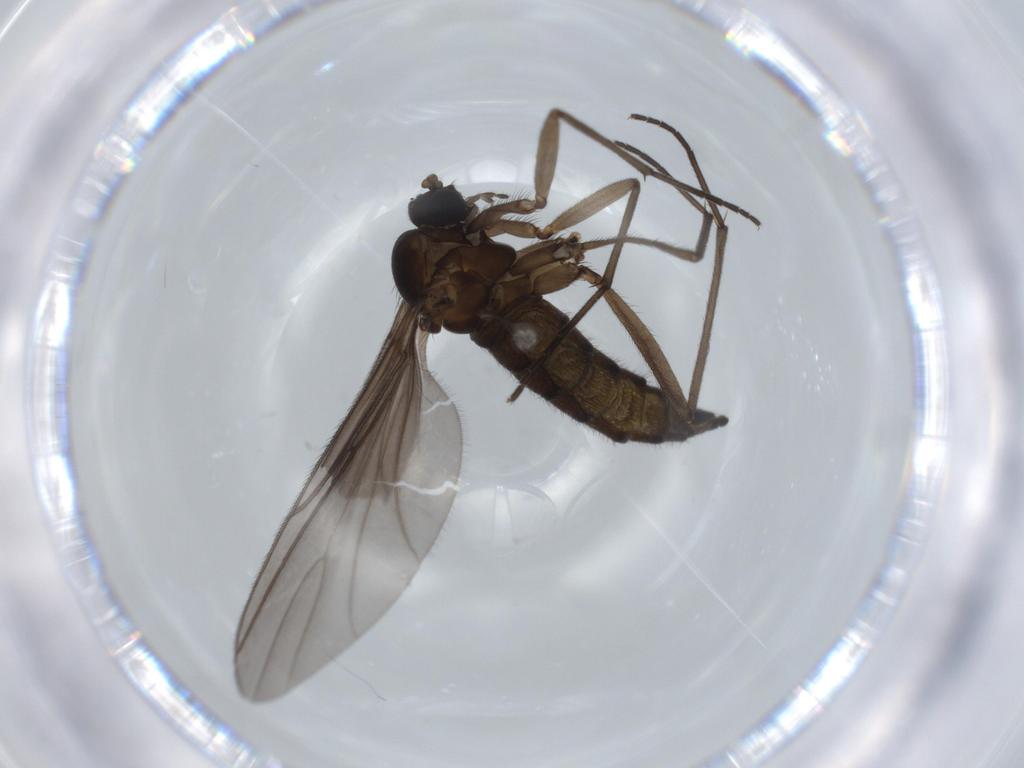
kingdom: Animalia
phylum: Arthropoda
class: Insecta
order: Diptera
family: Sciaridae
